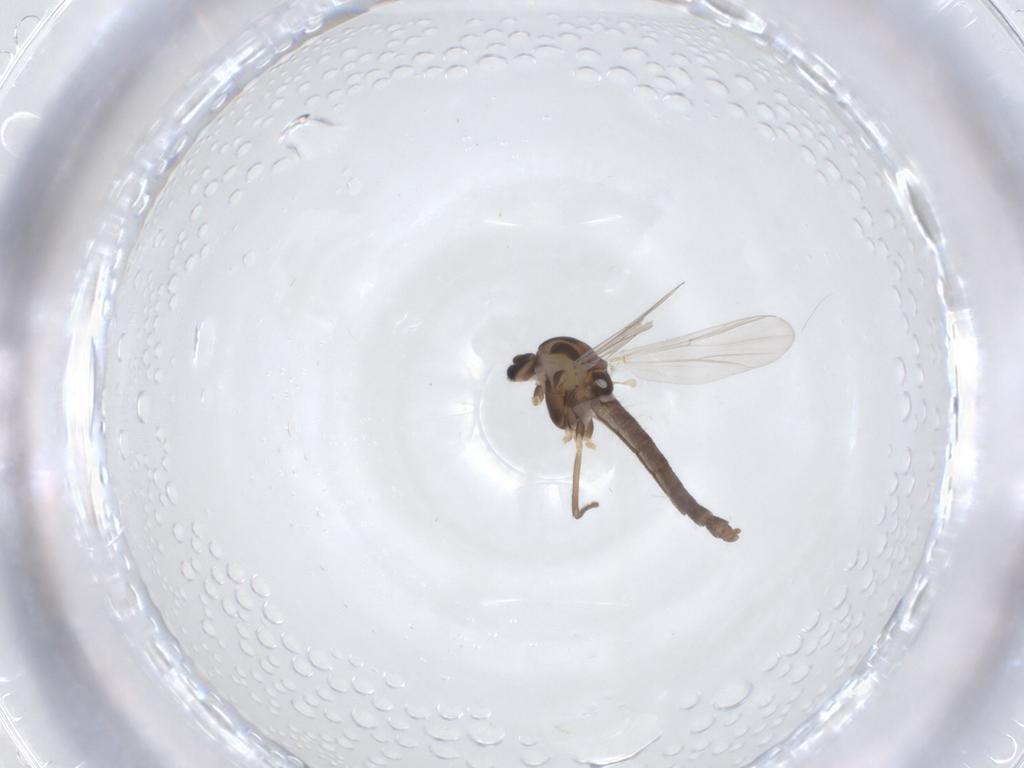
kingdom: Animalia
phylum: Arthropoda
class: Insecta
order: Diptera
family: Chironomidae
